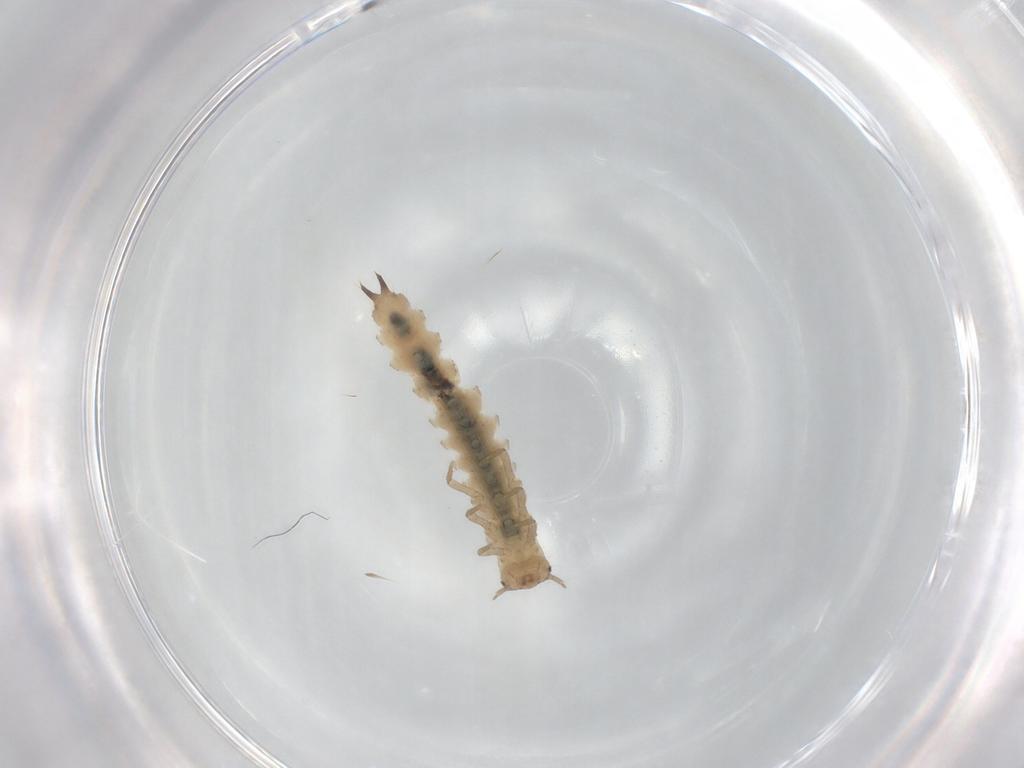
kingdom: Animalia
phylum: Arthropoda
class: Insecta
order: Coleoptera
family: Phalacridae
